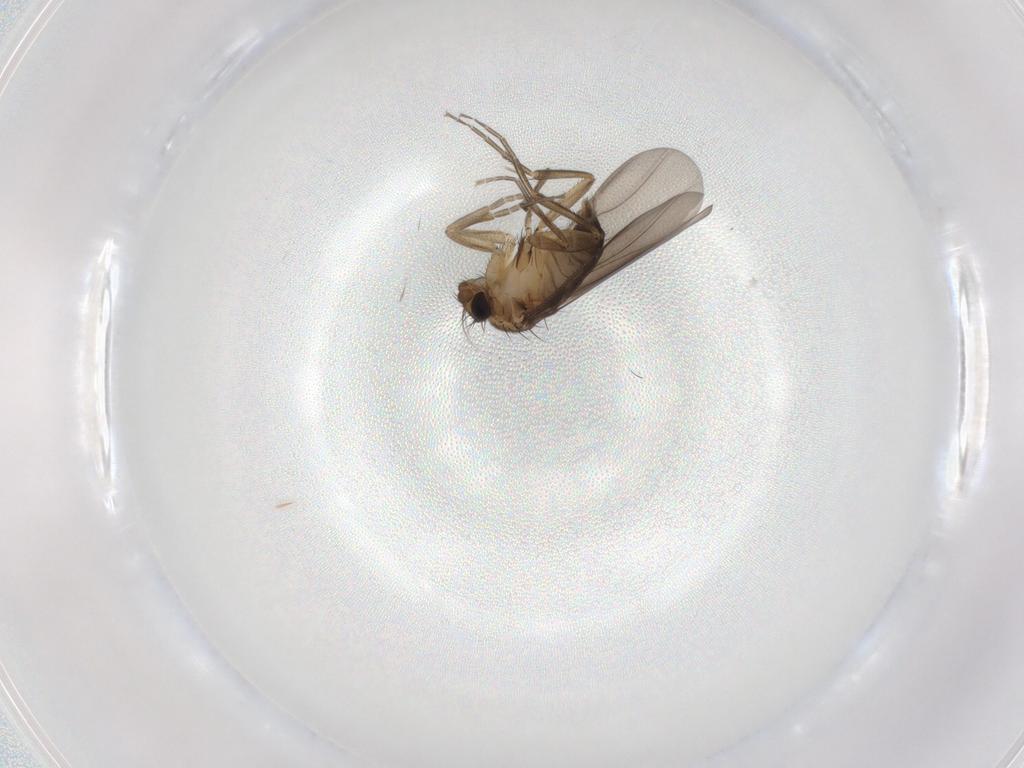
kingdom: Animalia
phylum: Arthropoda
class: Insecta
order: Diptera
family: Phoridae
